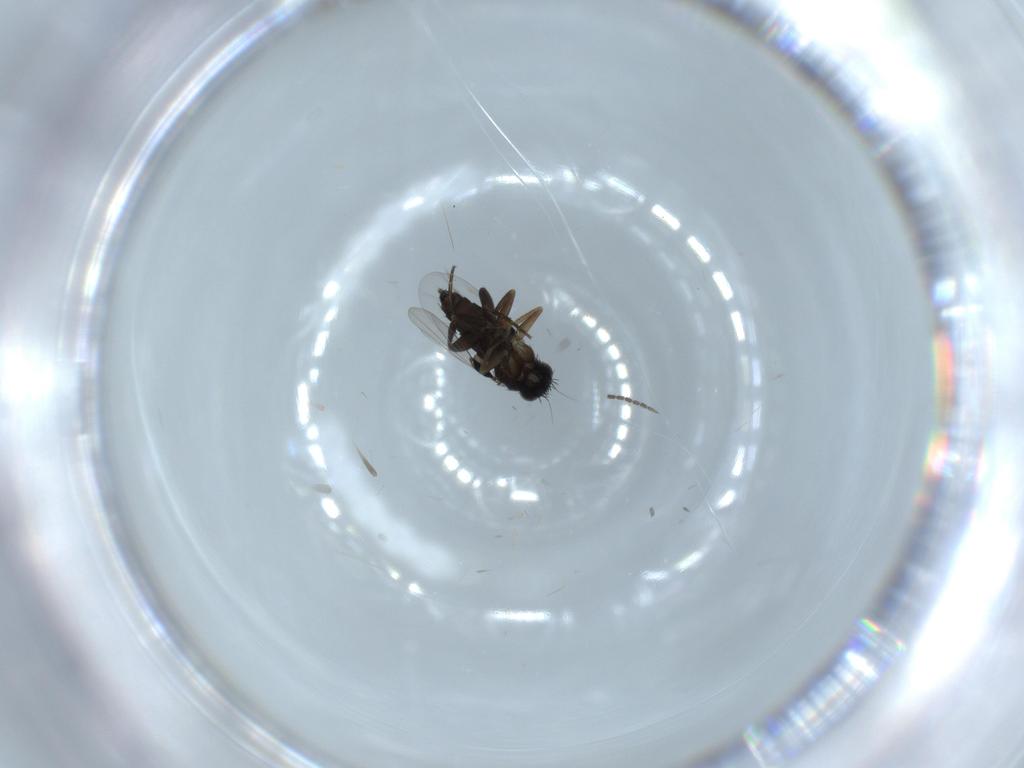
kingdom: Animalia
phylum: Arthropoda
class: Insecta
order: Diptera
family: Phoridae
